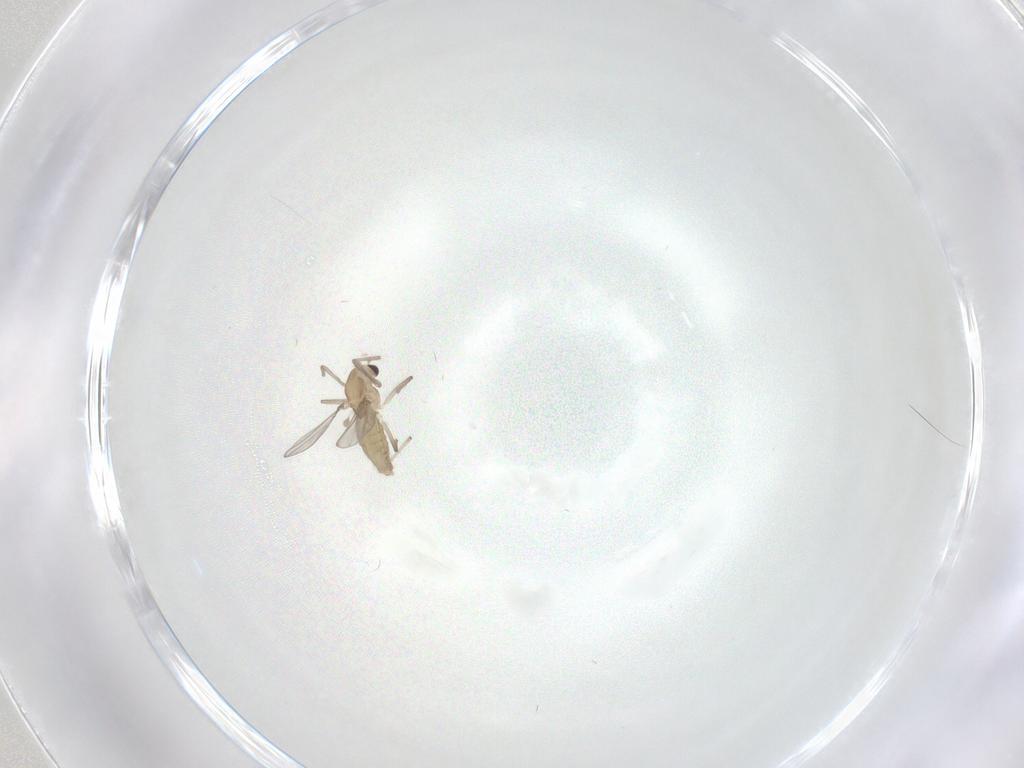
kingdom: Animalia
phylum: Arthropoda
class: Insecta
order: Diptera
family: Chironomidae
